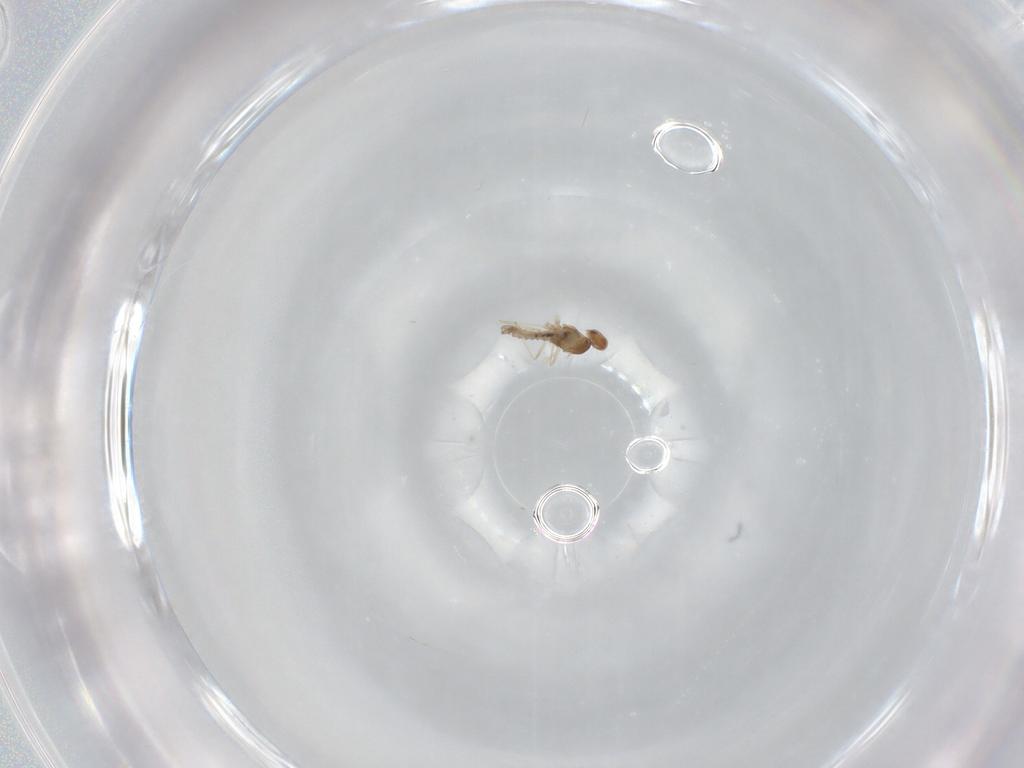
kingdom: Animalia
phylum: Arthropoda
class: Insecta
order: Diptera
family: Cecidomyiidae
